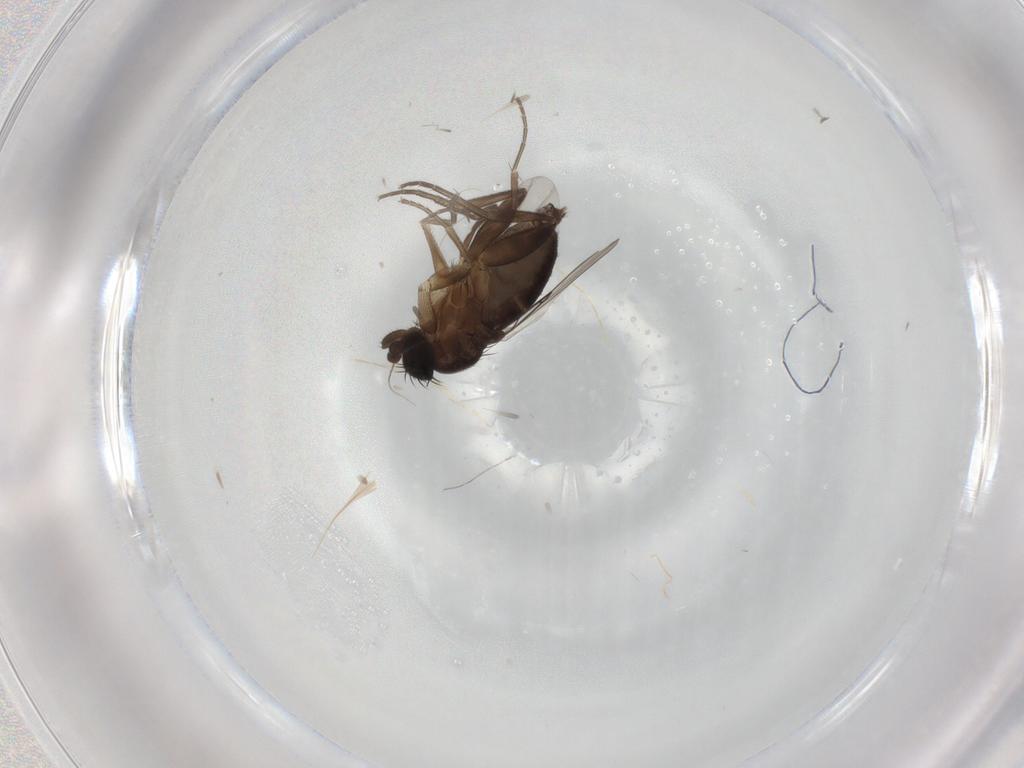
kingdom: Animalia
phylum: Arthropoda
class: Insecta
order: Diptera
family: Phoridae
